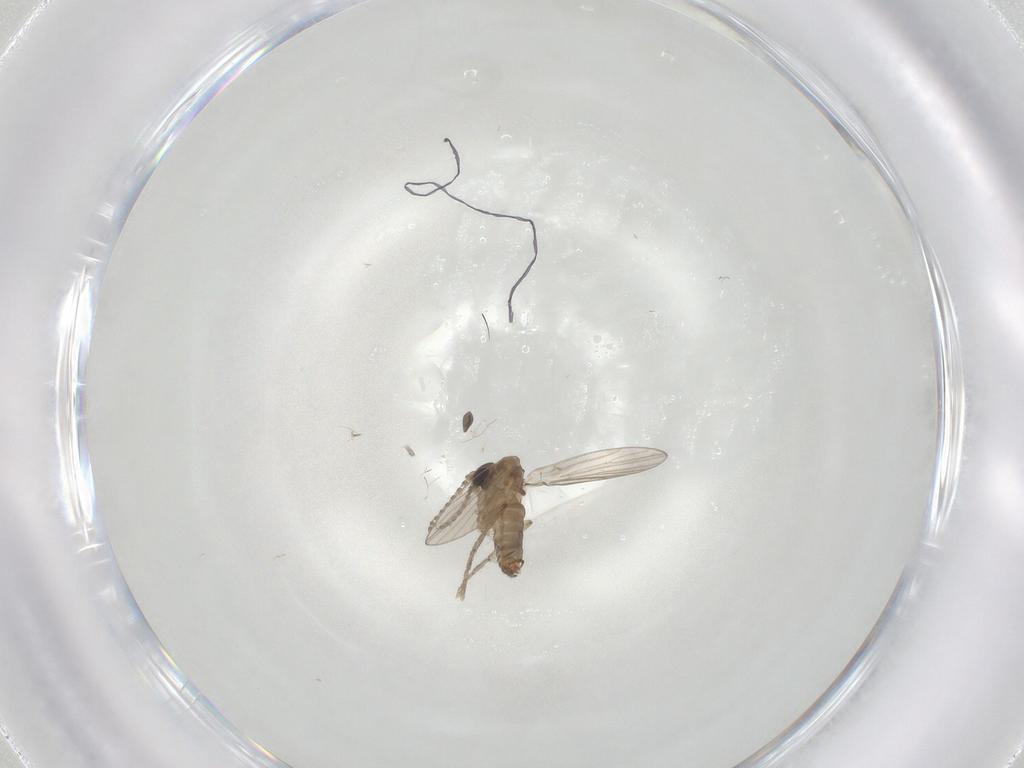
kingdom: Animalia
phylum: Arthropoda
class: Insecta
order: Diptera
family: Sciaridae
